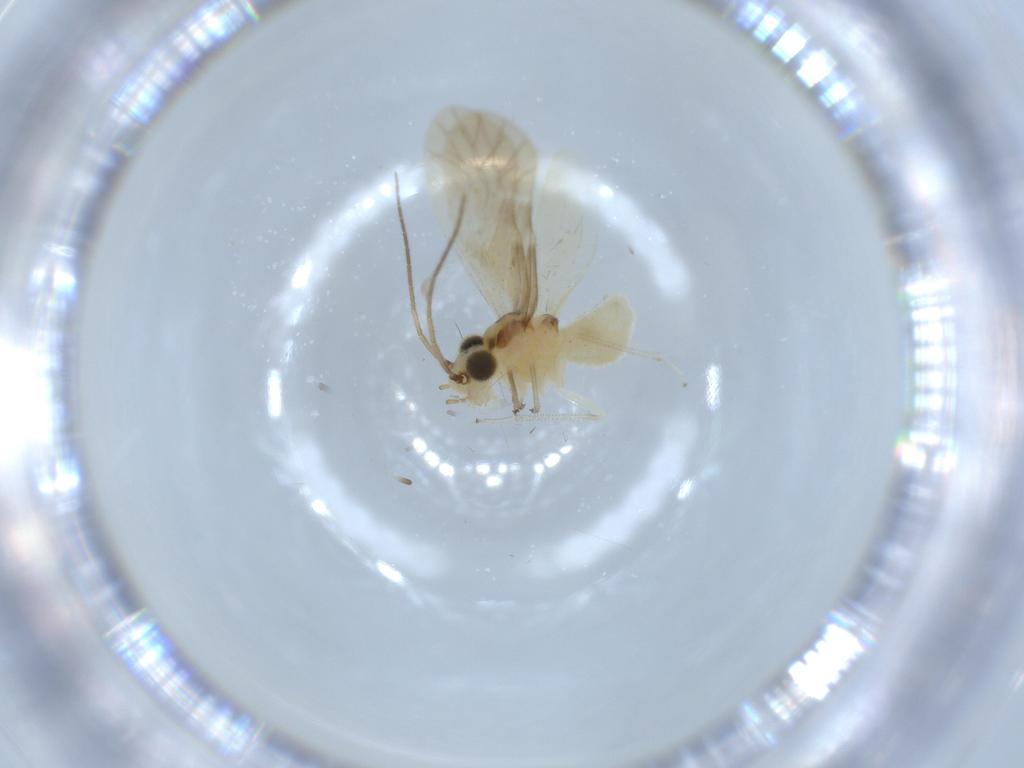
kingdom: Animalia
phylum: Arthropoda
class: Insecta
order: Psocodea
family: Caeciliusidae
